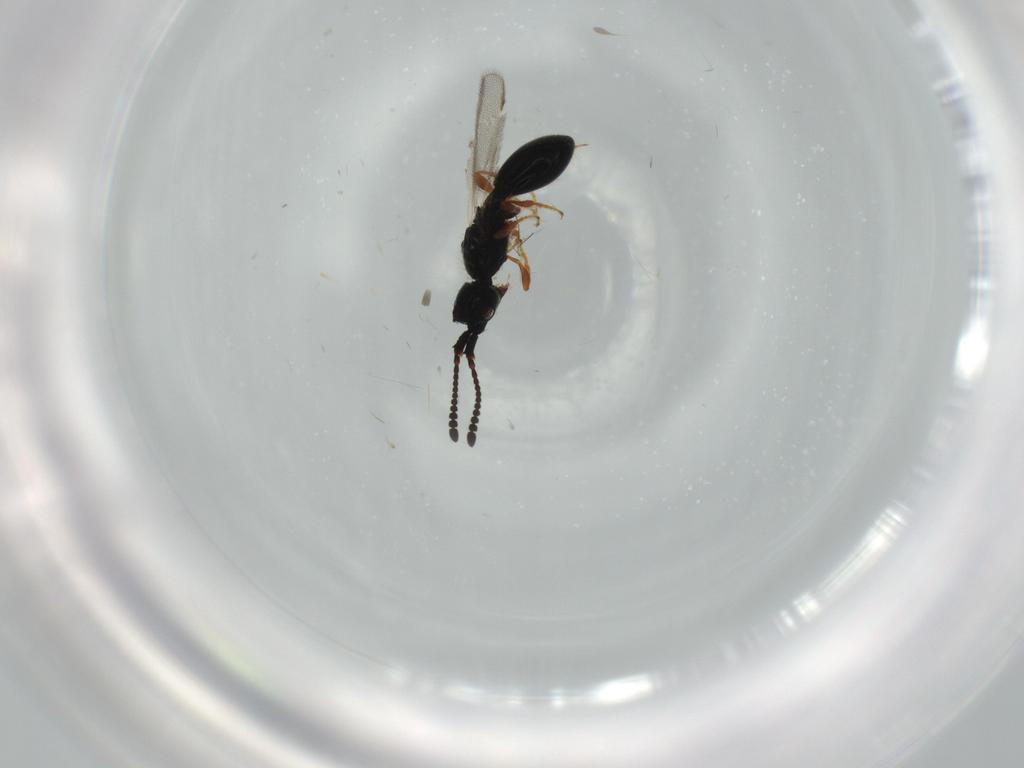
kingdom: Animalia
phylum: Arthropoda
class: Insecta
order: Hymenoptera
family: Diapriidae
